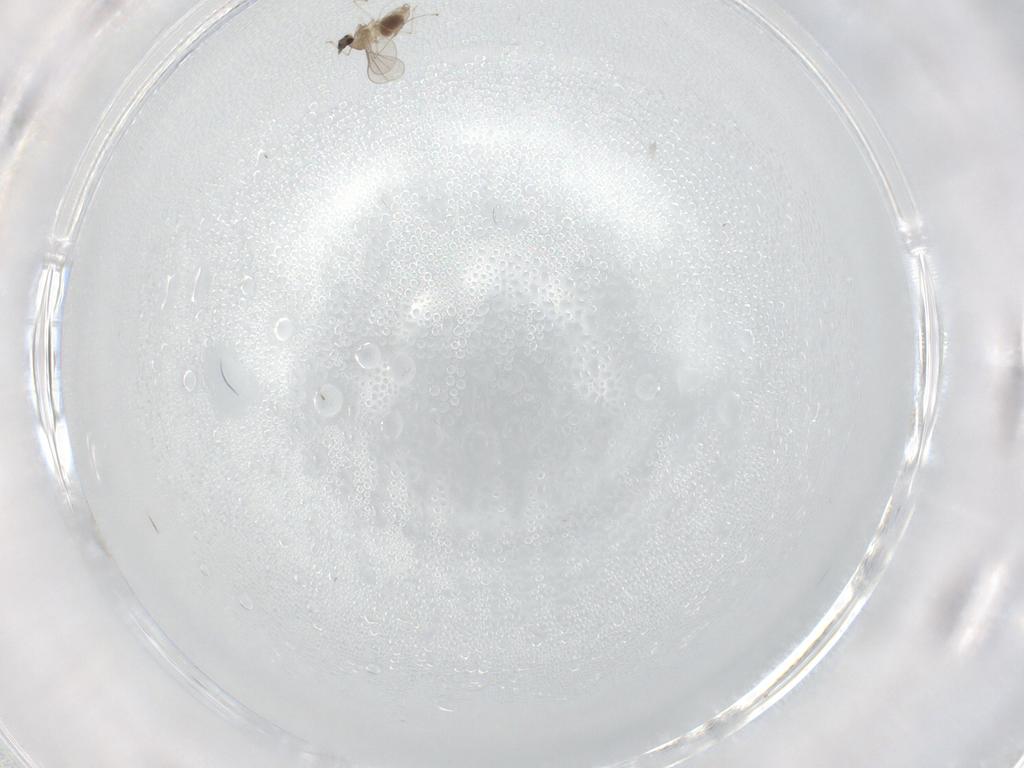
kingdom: Animalia
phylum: Arthropoda
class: Insecta
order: Diptera
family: Cecidomyiidae
